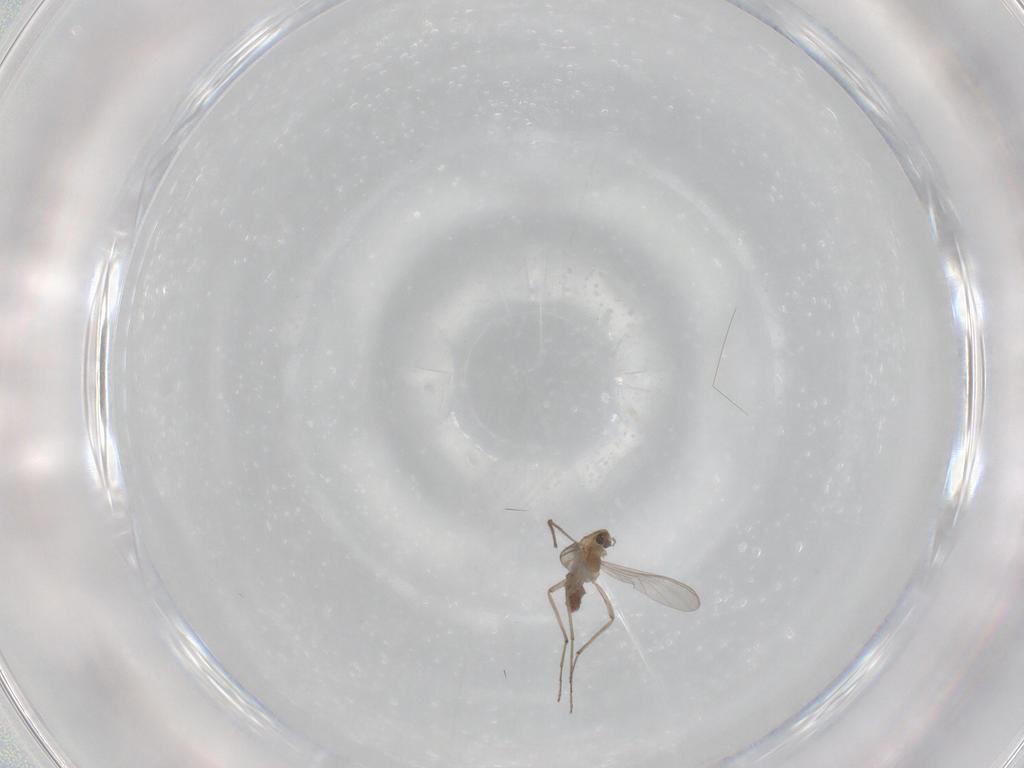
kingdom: Animalia
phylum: Arthropoda
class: Insecta
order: Diptera
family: Chironomidae
